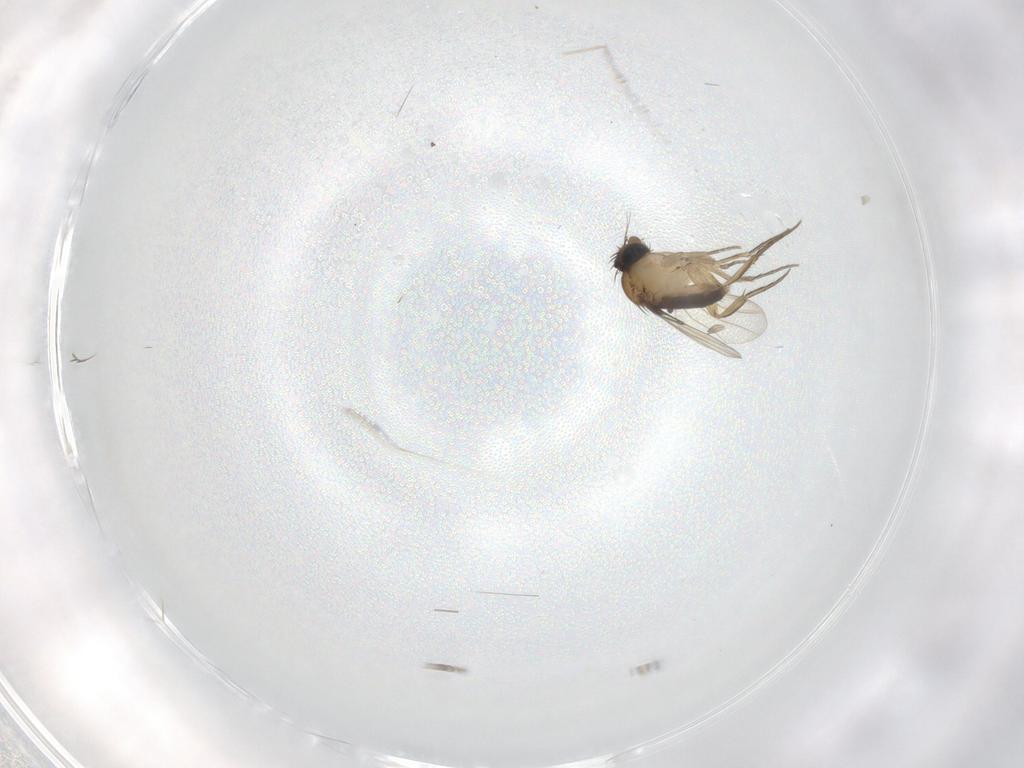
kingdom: Animalia
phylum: Arthropoda
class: Insecta
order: Diptera
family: Phoridae
